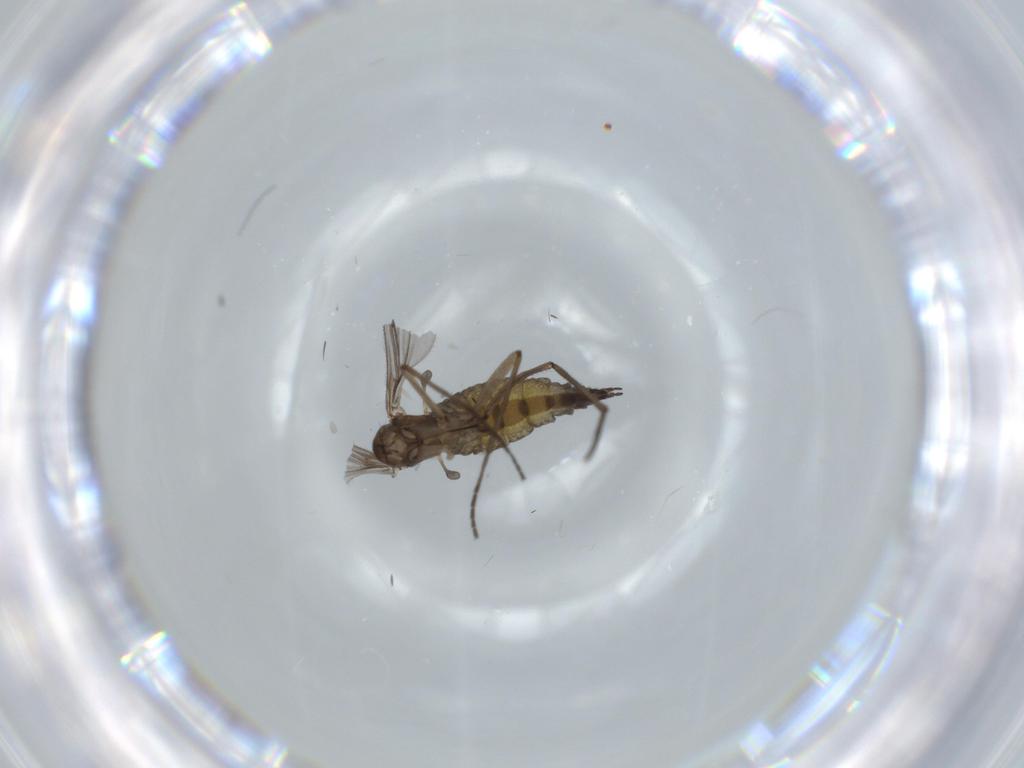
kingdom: Animalia
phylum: Arthropoda
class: Insecta
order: Diptera
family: Sciaridae
